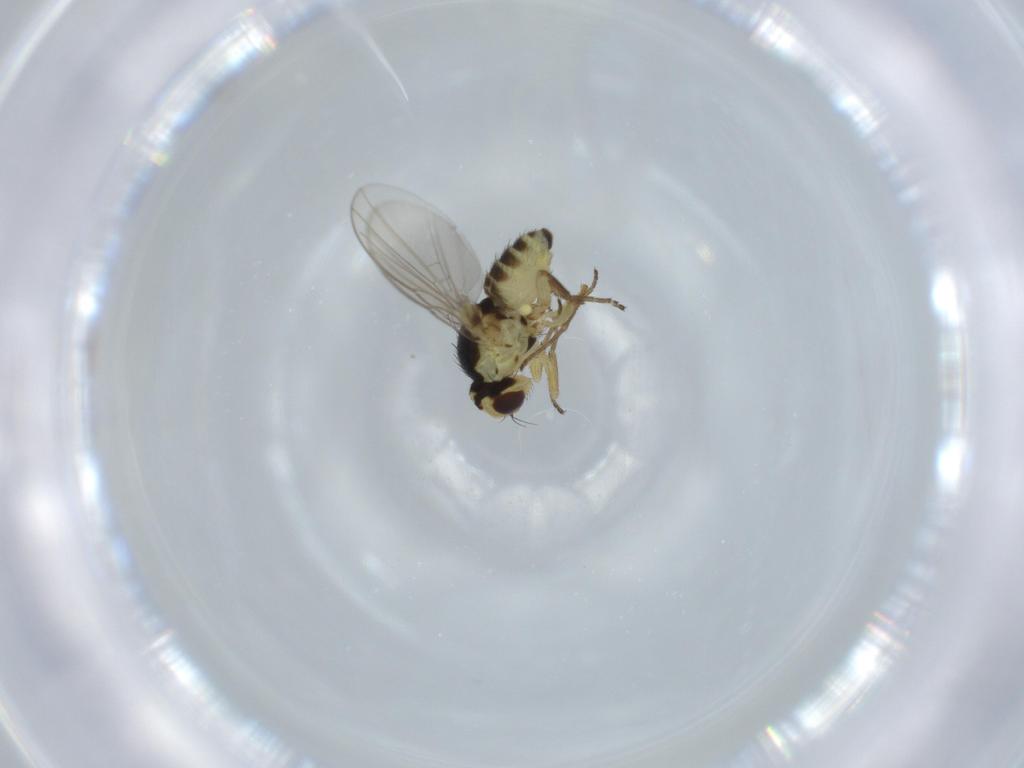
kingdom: Animalia
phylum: Arthropoda
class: Insecta
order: Diptera
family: Agromyzidae
